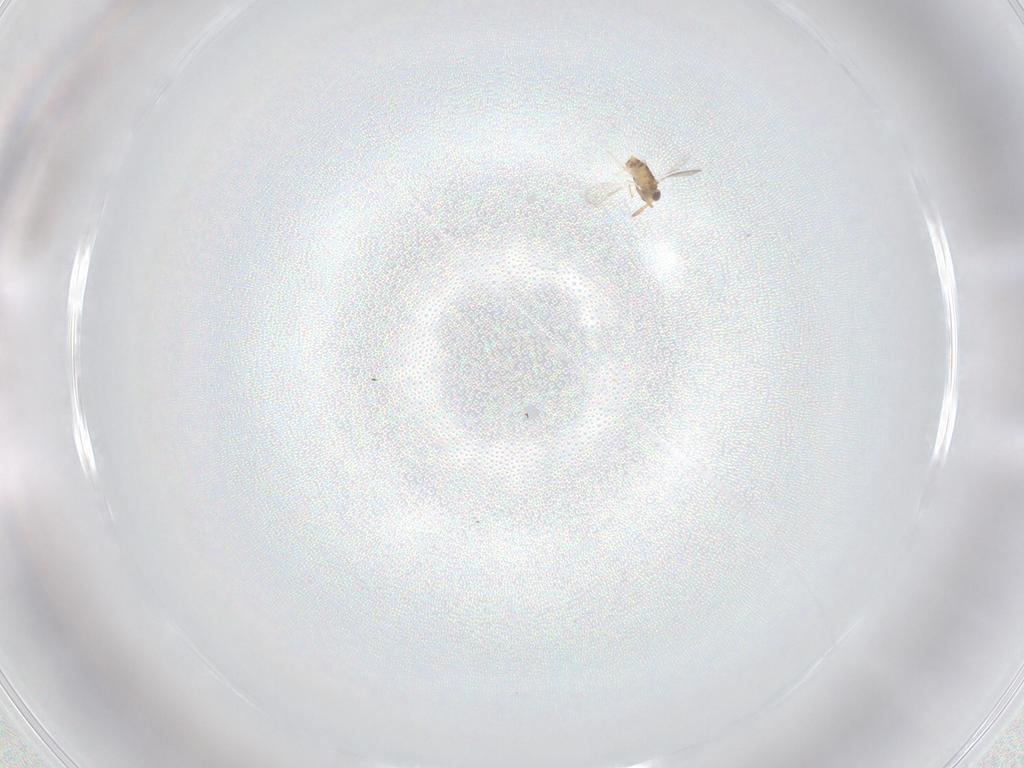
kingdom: Animalia
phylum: Arthropoda
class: Insecta
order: Hymenoptera
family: Aphelinidae
